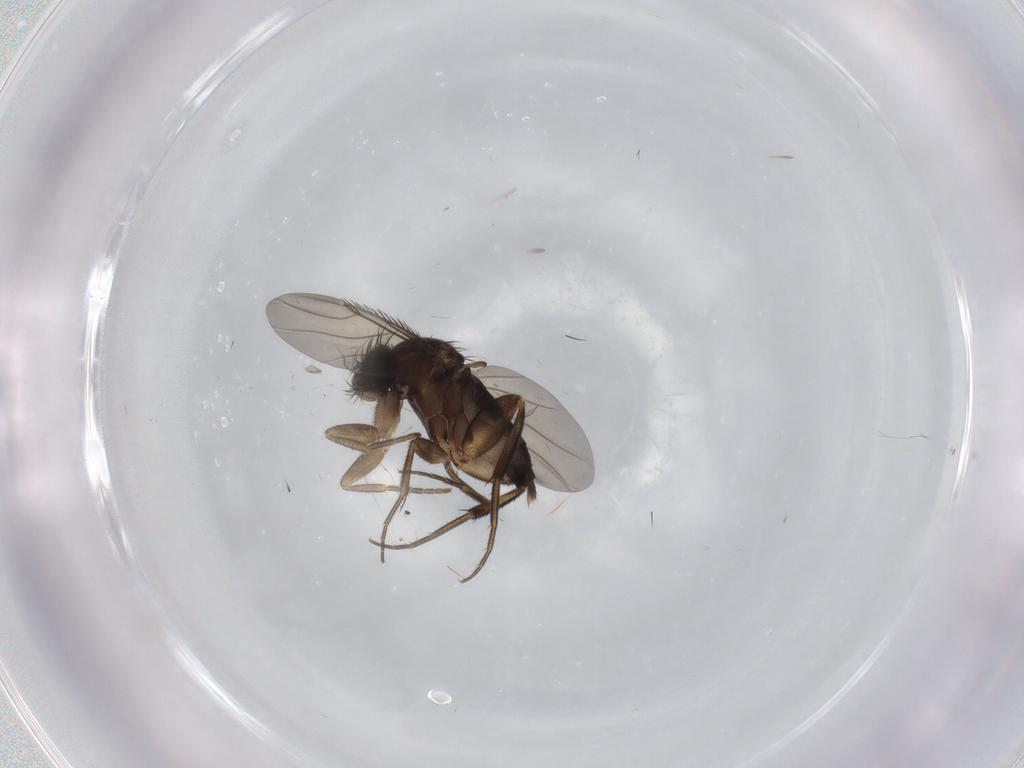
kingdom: Animalia
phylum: Arthropoda
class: Insecta
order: Diptera
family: Phoridae
